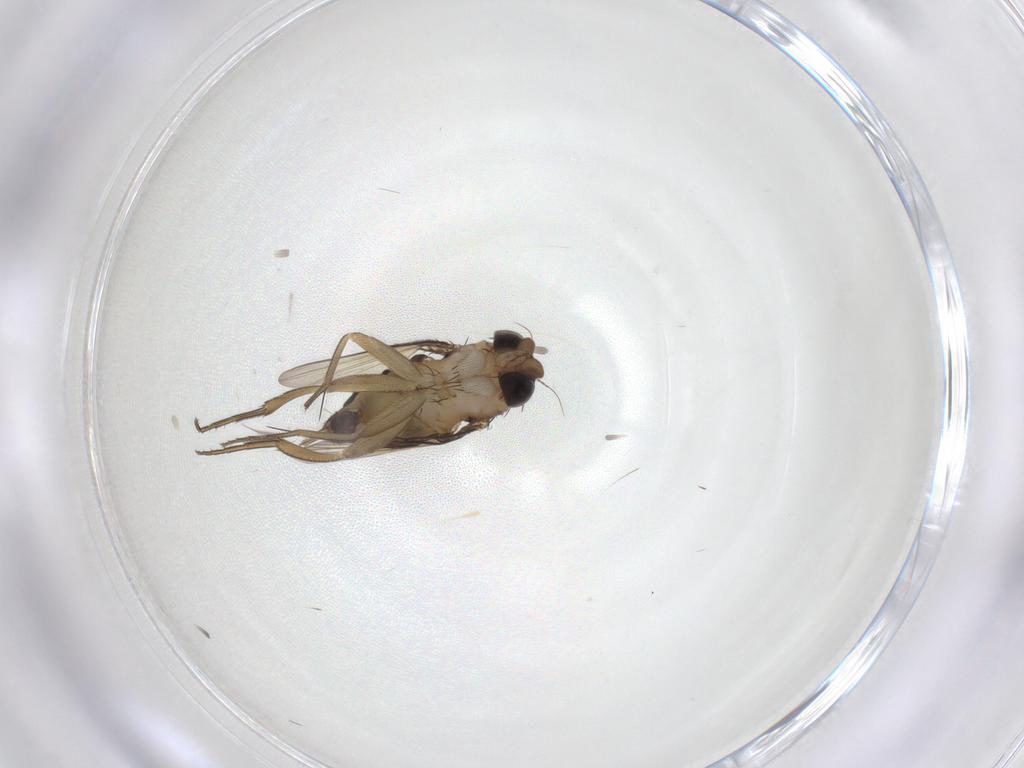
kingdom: Animalia
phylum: Arthropoda
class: Insecta
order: Diptera
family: Phoridae
